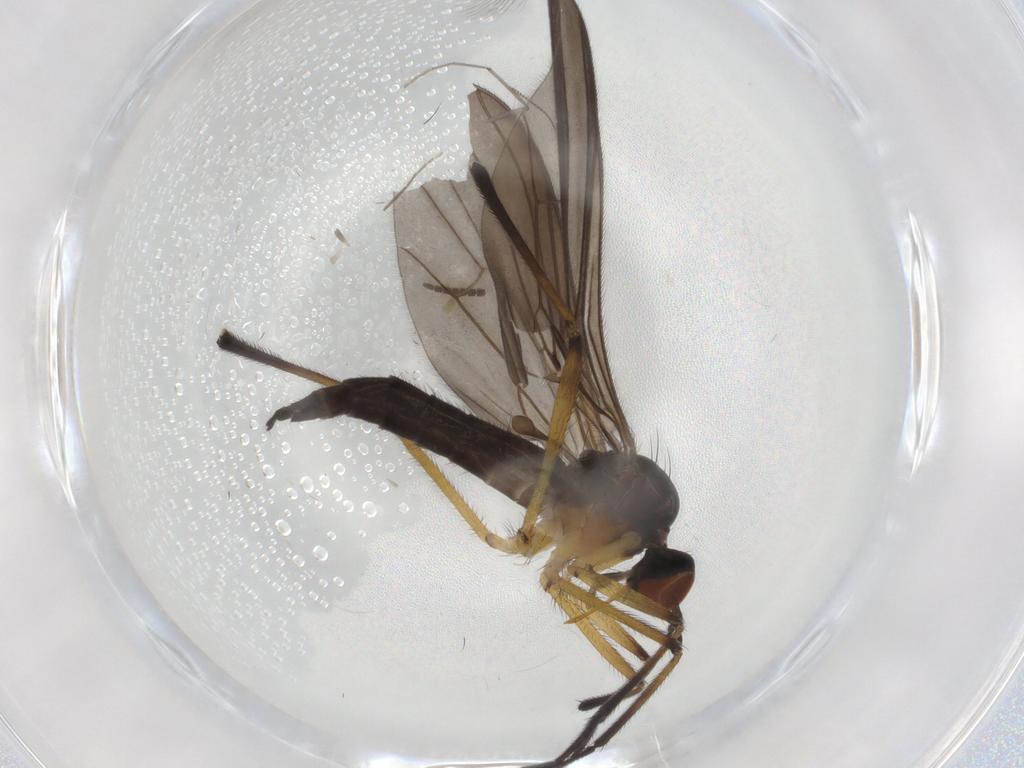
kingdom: Animalia
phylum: Arthropoda
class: Insecta
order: Diptera
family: Empididae
